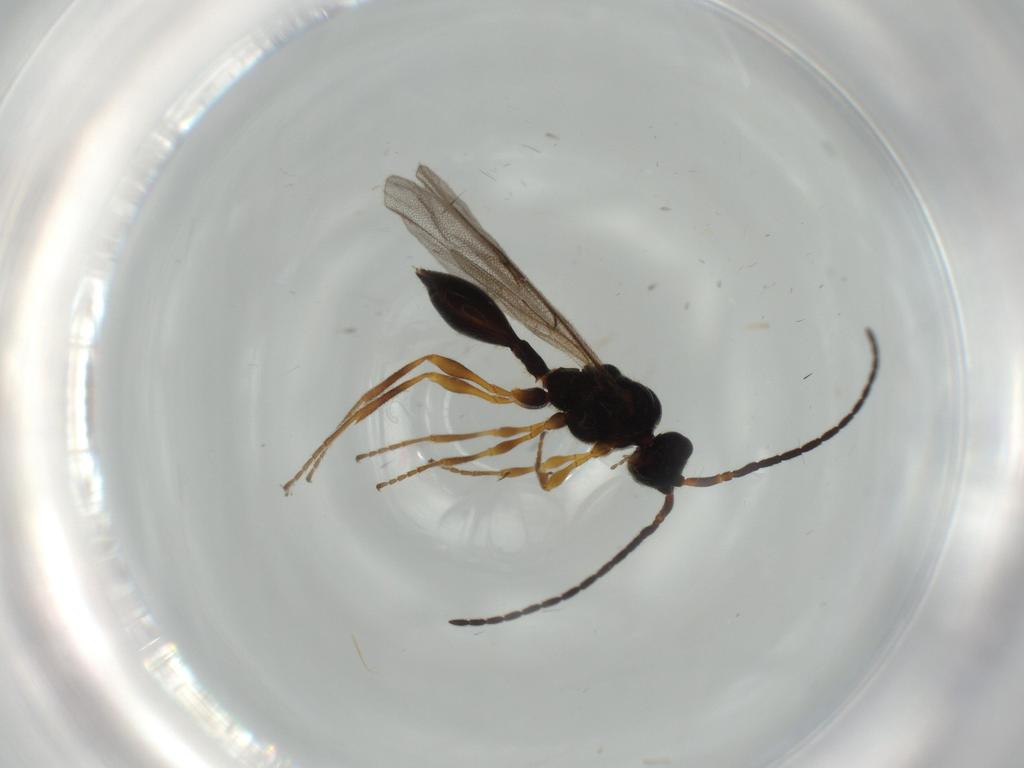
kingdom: Animalia
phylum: Arthropoda
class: Insecta
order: Hymenoptera
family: Diapriidae
